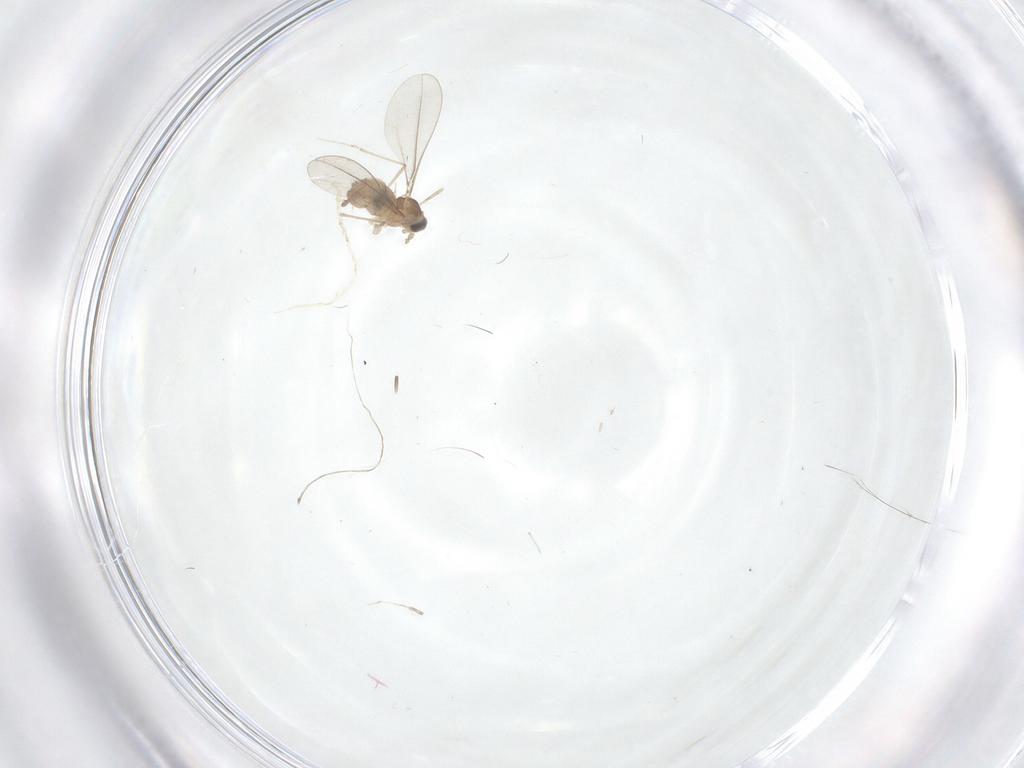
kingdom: Animalia
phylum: Arthropoda
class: Insecta
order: Diptera
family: Cecidomyiidae
